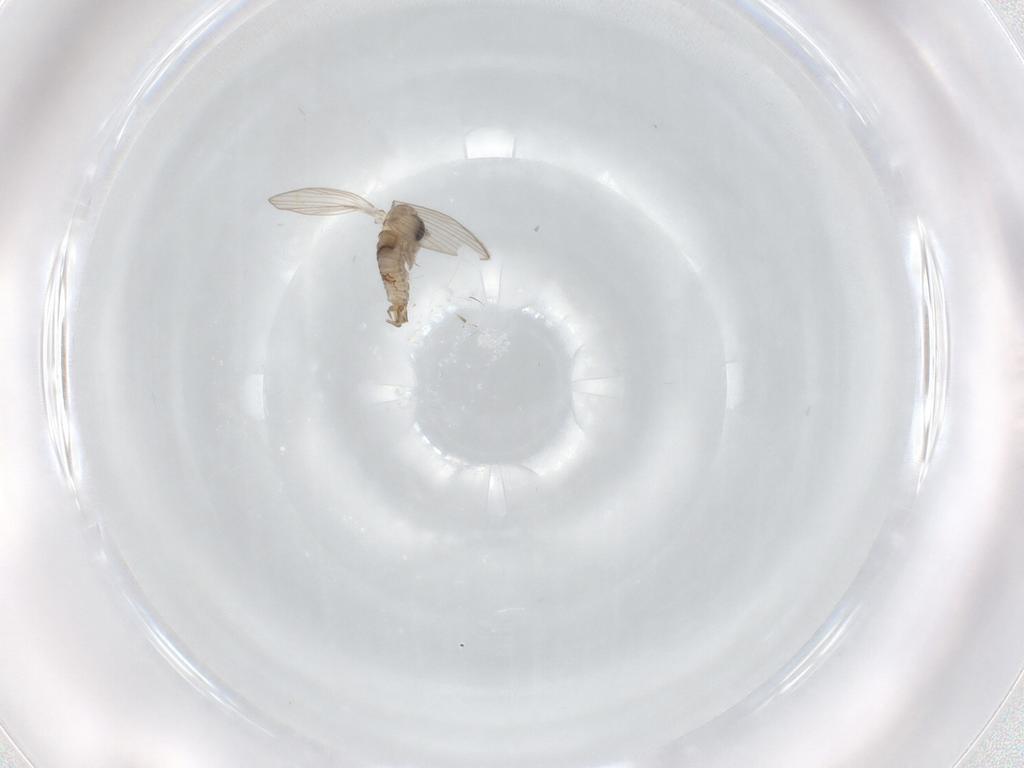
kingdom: Animalia
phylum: Arthropoda
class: Insecta
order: Diptera
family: Psychodidae
